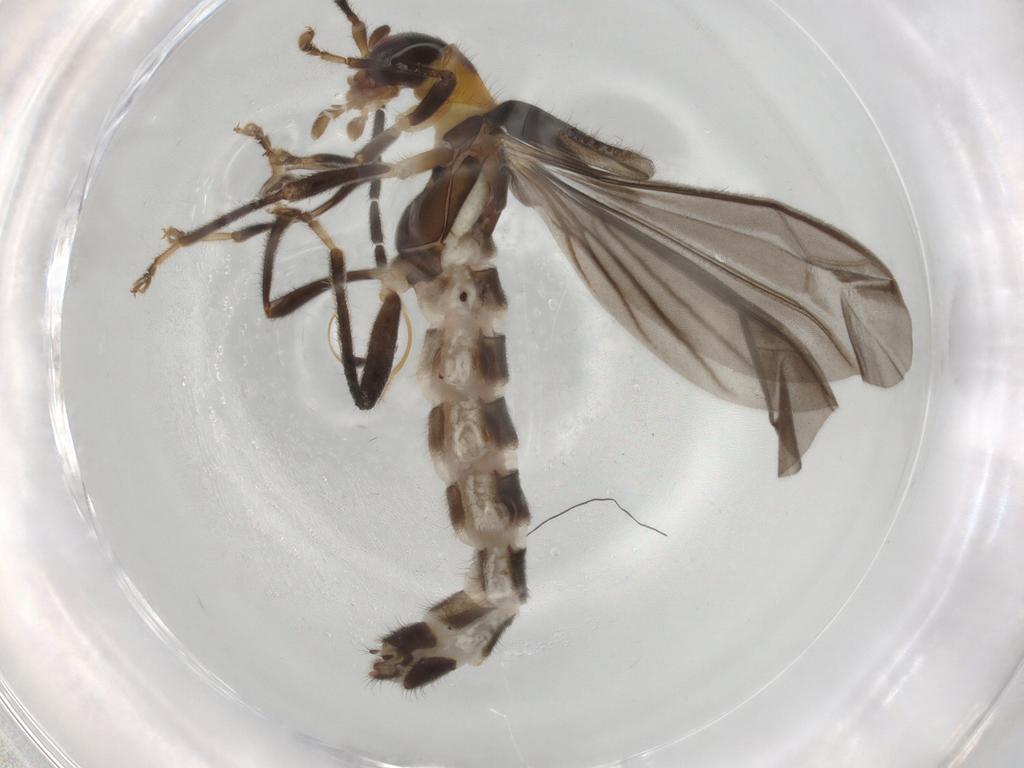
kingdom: Animalia
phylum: Arthropoda
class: Insecta
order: Coleoptera
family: Cantharidae
